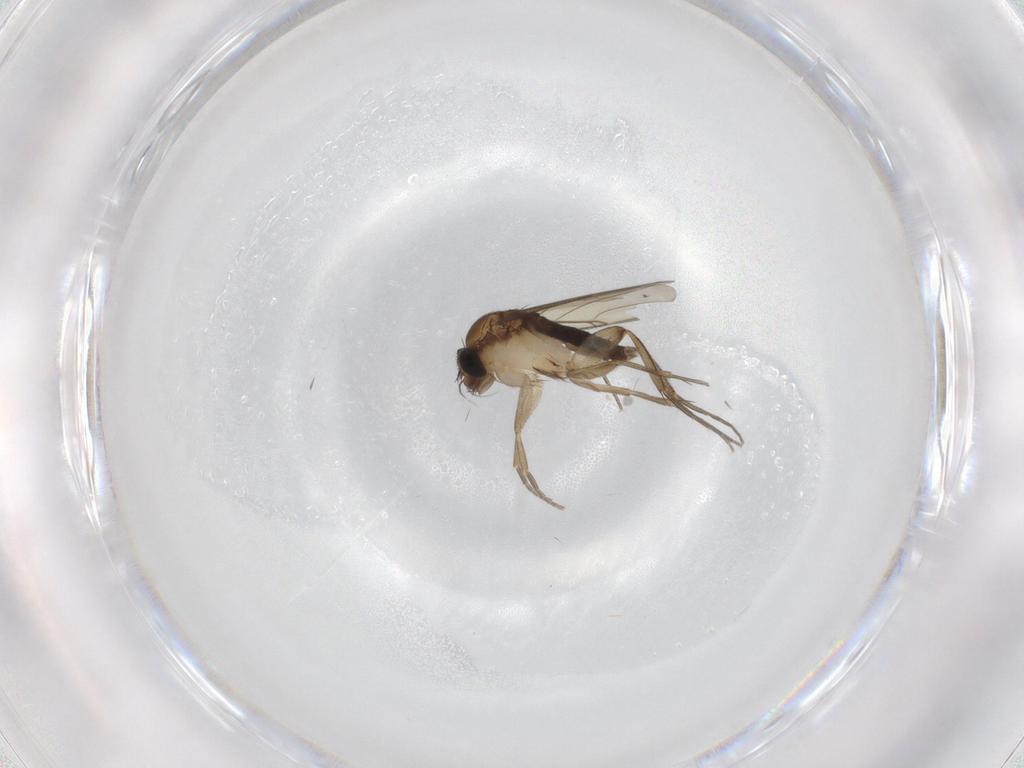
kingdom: Animalia
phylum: Arthropoda
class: Insecta
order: Diptera
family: Phoridae
